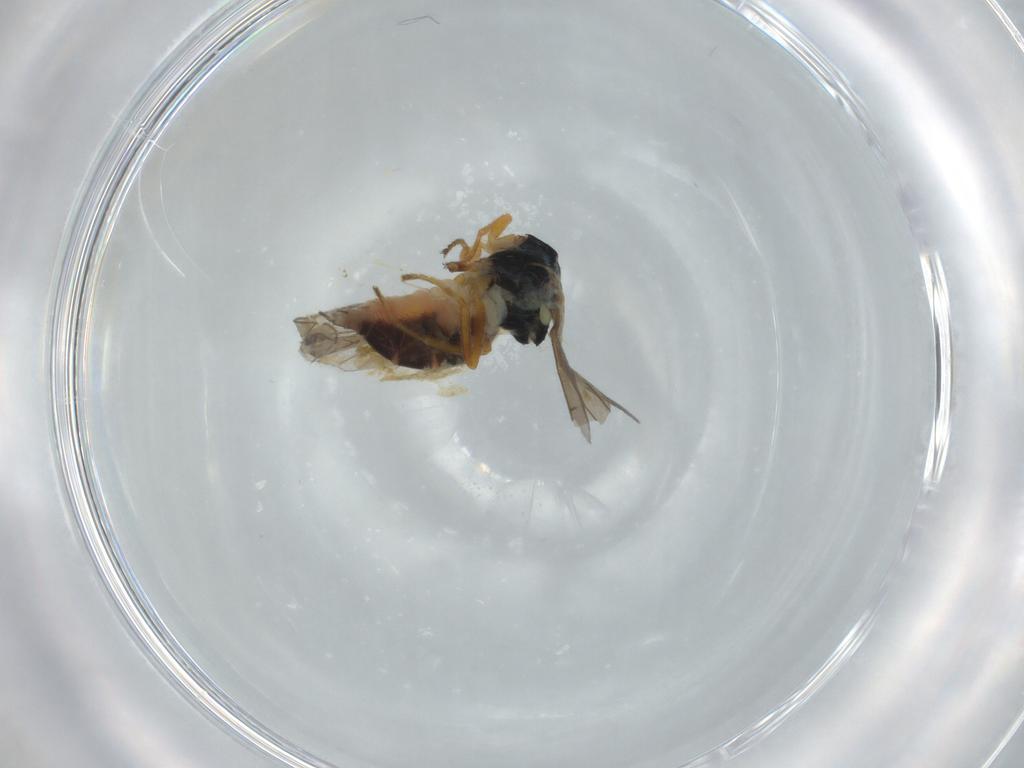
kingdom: Animalia
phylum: Arthropoda
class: Insecta
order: Diptera
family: Chloropidae
